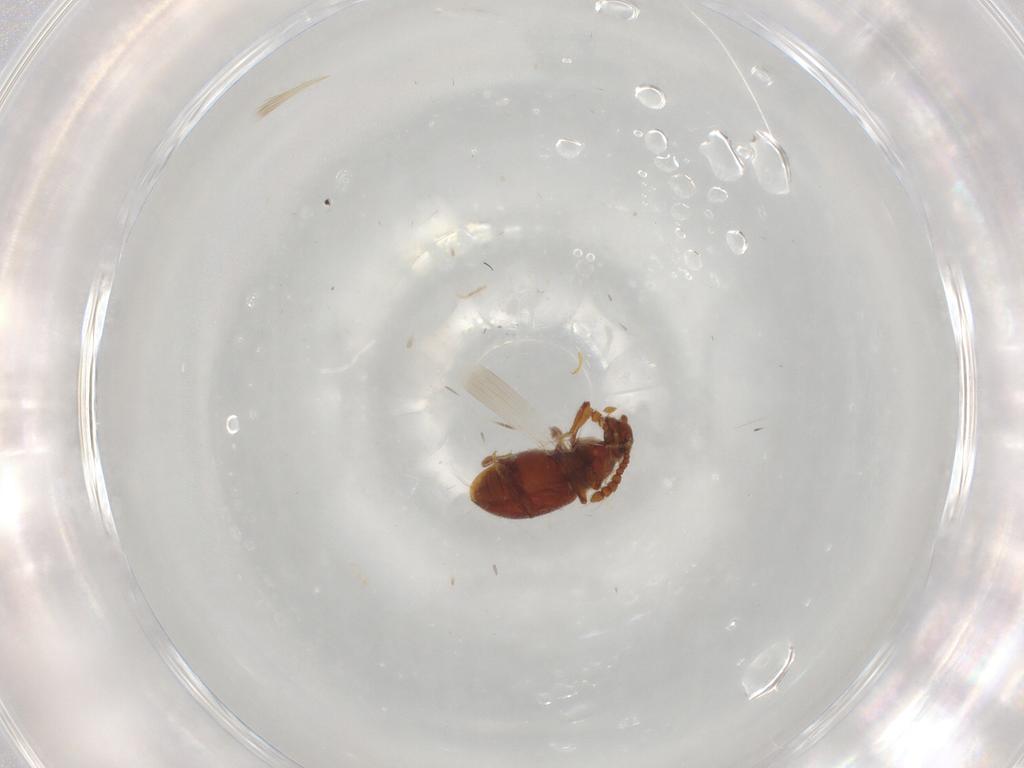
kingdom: Animalia
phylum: Arthropoda
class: Insecta
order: Coleoptera
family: Staphylinidae
